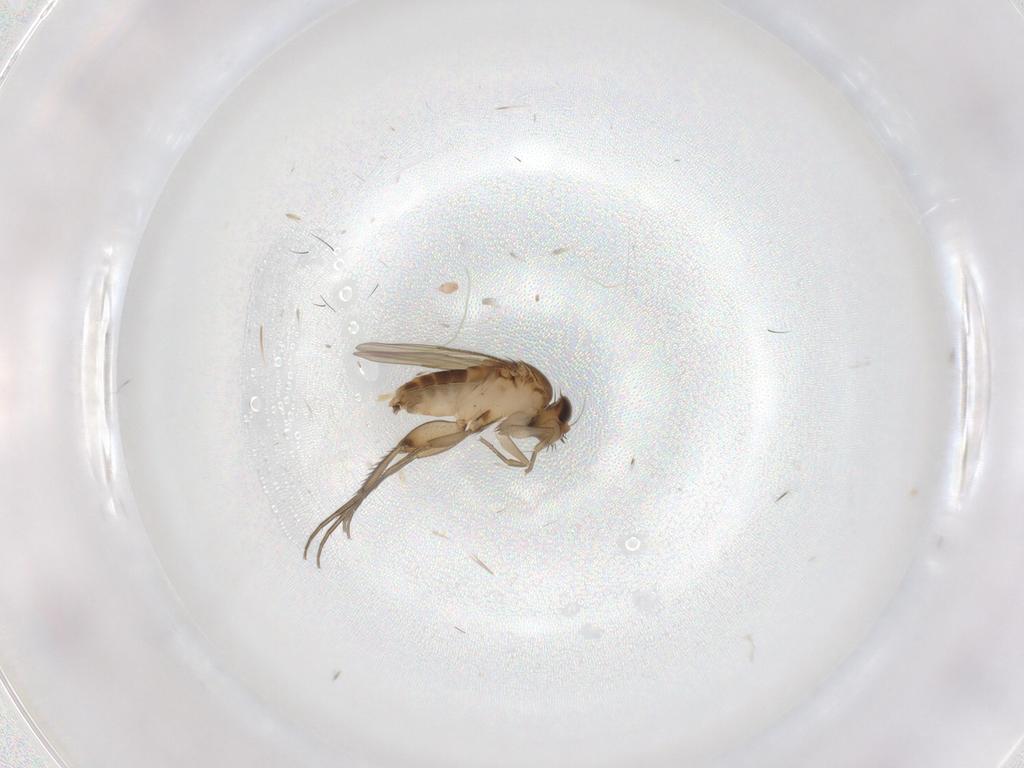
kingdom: Animalia
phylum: Arthropoda
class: Insecta
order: Diptera
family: Phoridae
